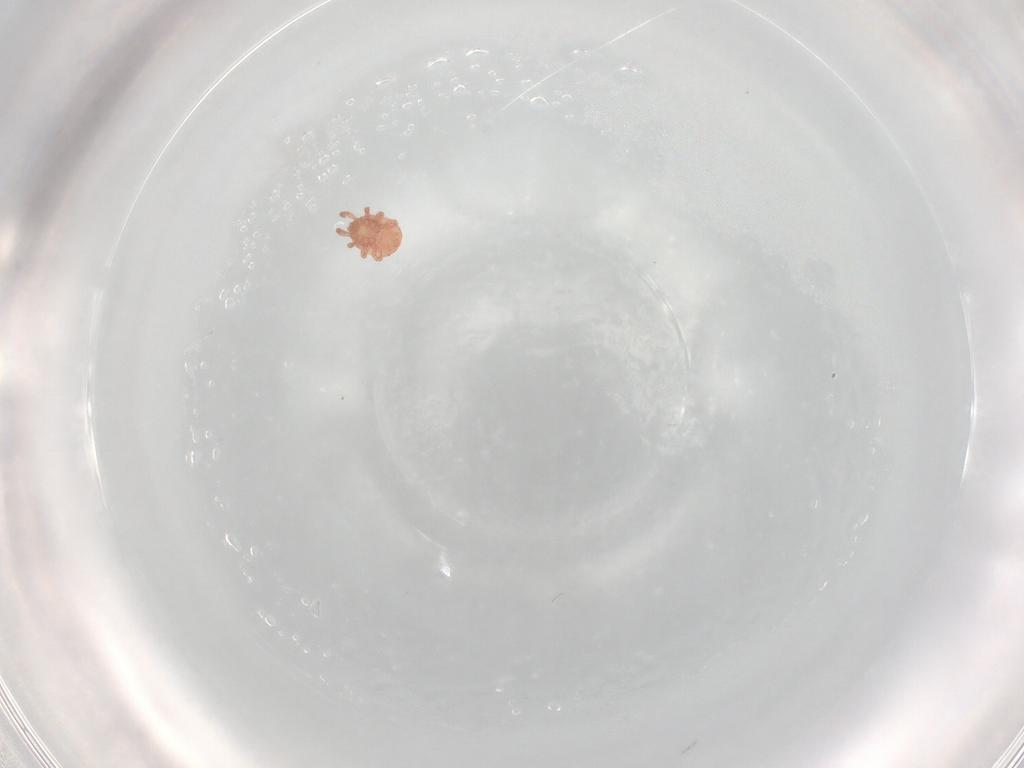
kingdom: Animalia
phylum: Arthropoda
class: Arachnida
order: Mesostigmata
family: Zerconidae
